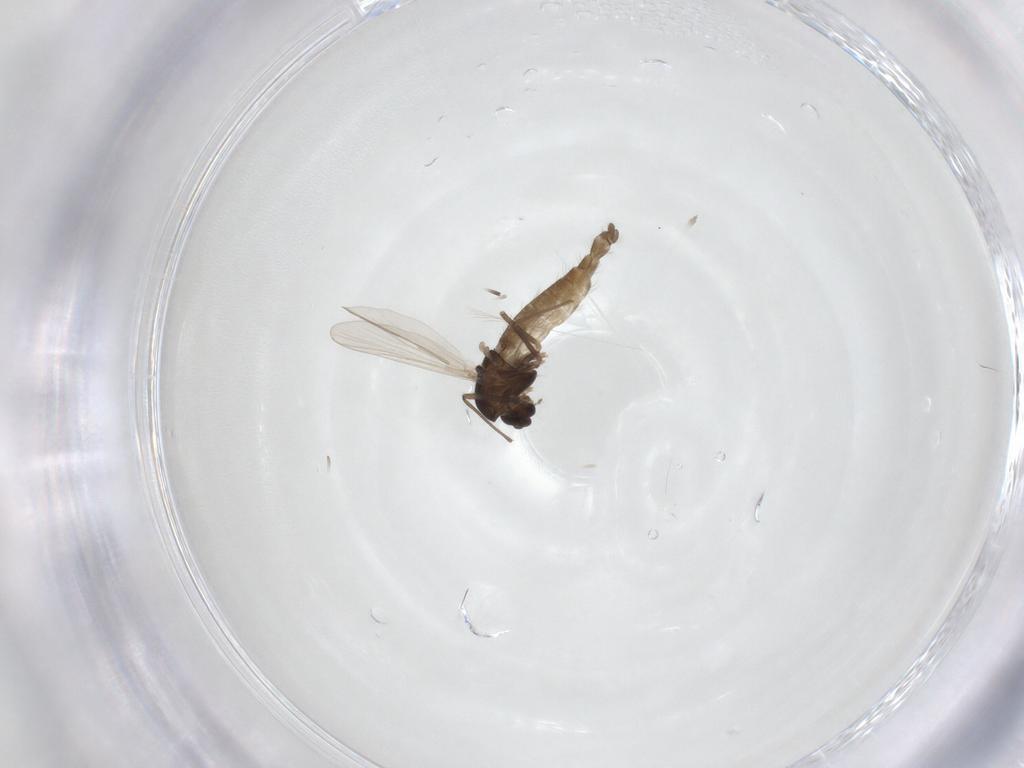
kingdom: Animalia
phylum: Arthropoda
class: Insecta
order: Diptera
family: Chironomidae
